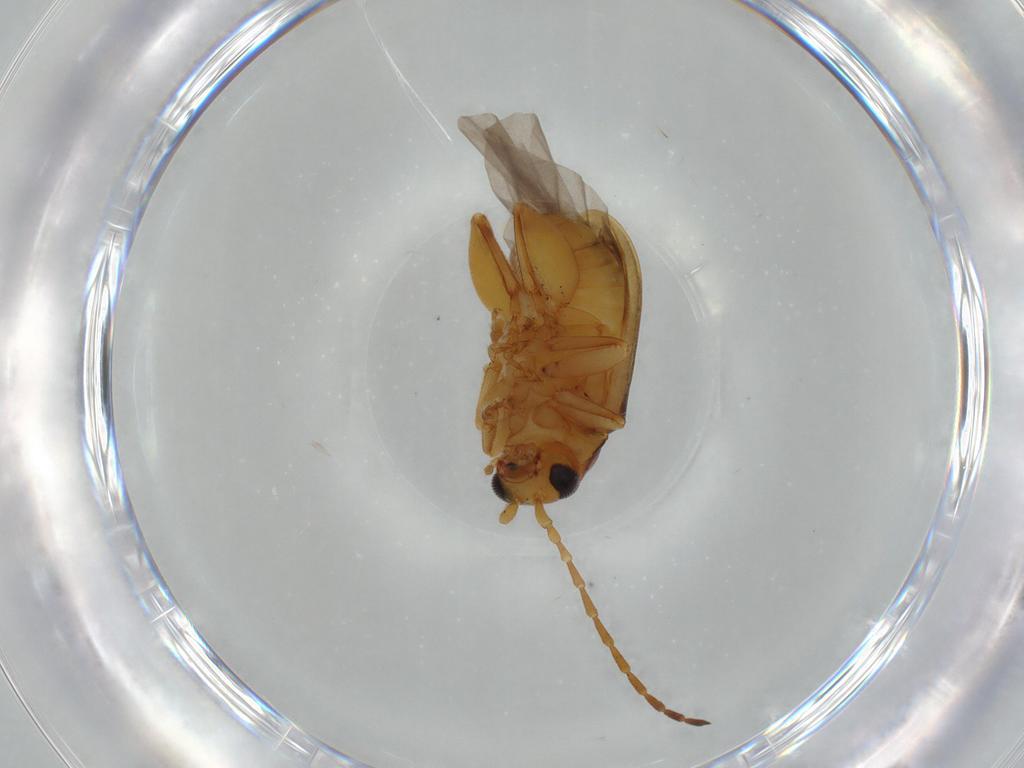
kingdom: Animalia
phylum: Arthropoda
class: Insecta
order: Coleoptera
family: Chrysomelidae
